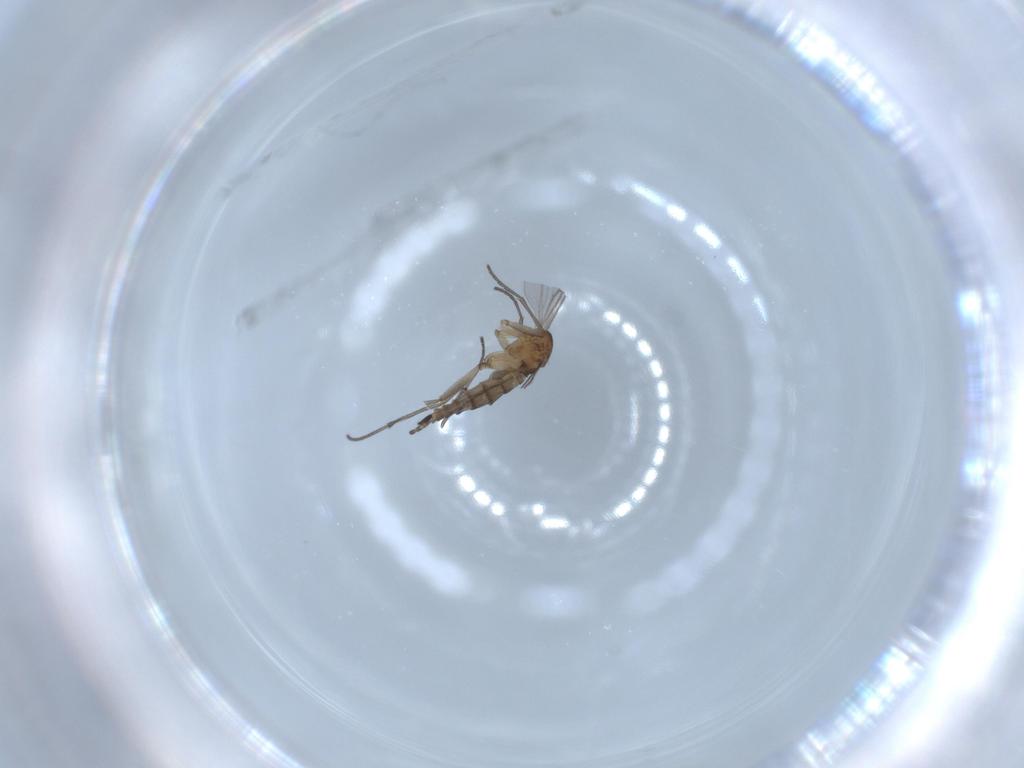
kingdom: Animalia
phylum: Arthropoda
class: Insecta
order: Diptera
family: Sciaridae
